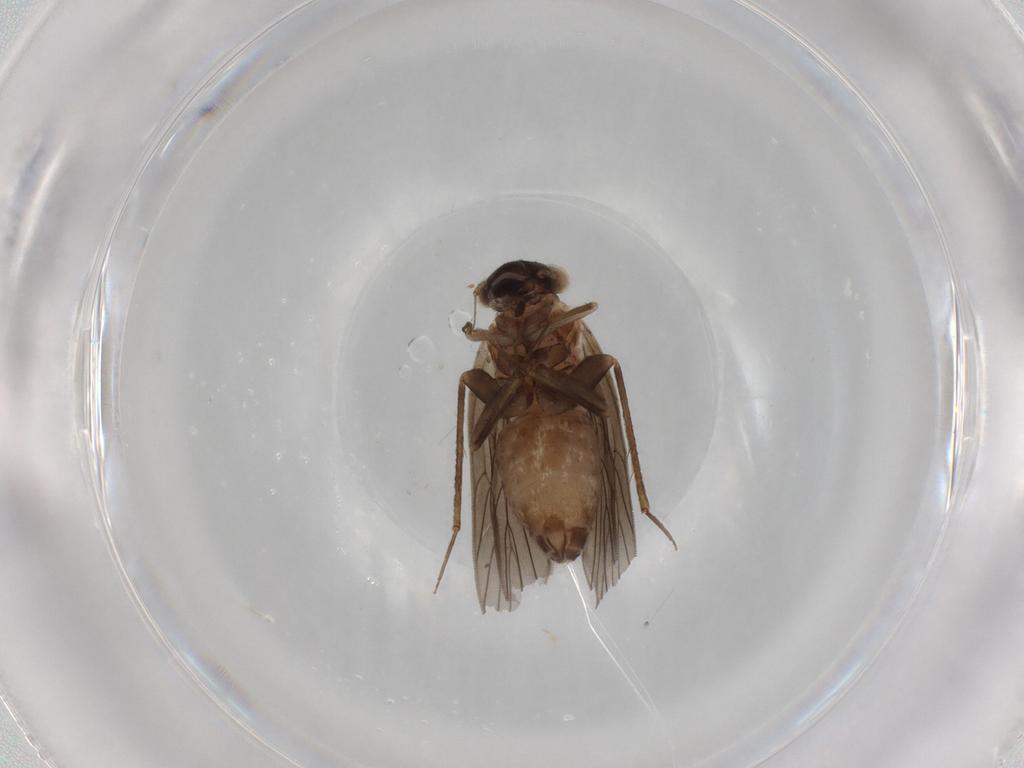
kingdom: Animalia
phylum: Arthropoda
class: Insecta
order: Psocodea
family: Lepidopsocidae
